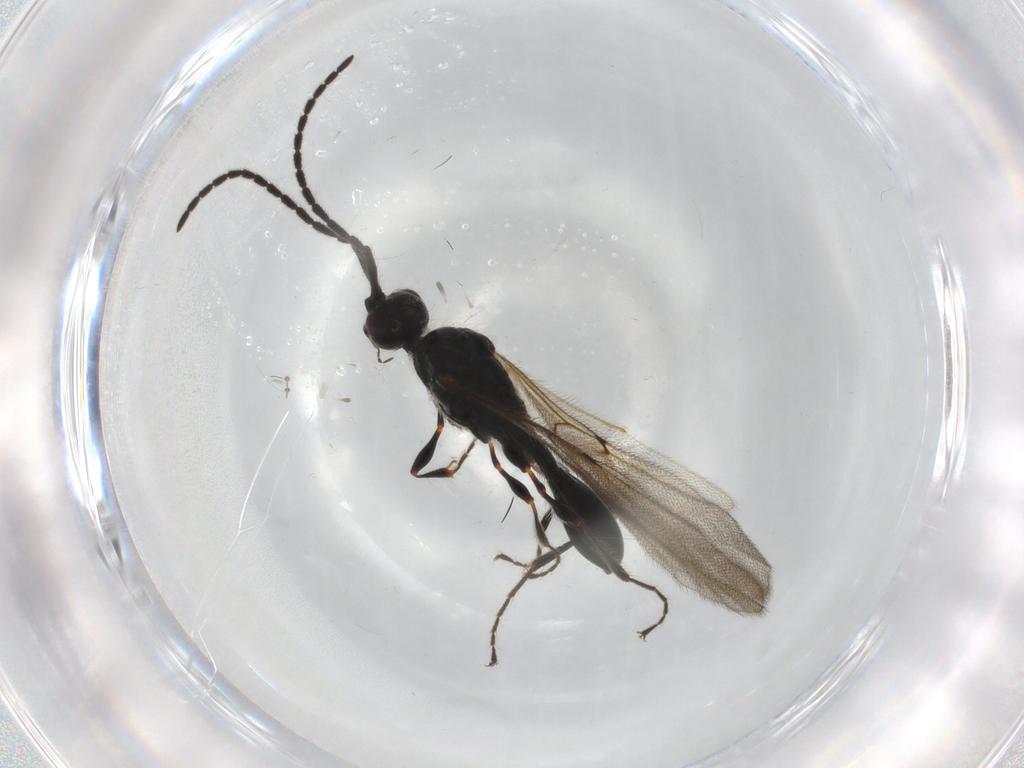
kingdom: Animalia
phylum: Arthropoda
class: Insecta
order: Hymenoptera
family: Diapriidae
